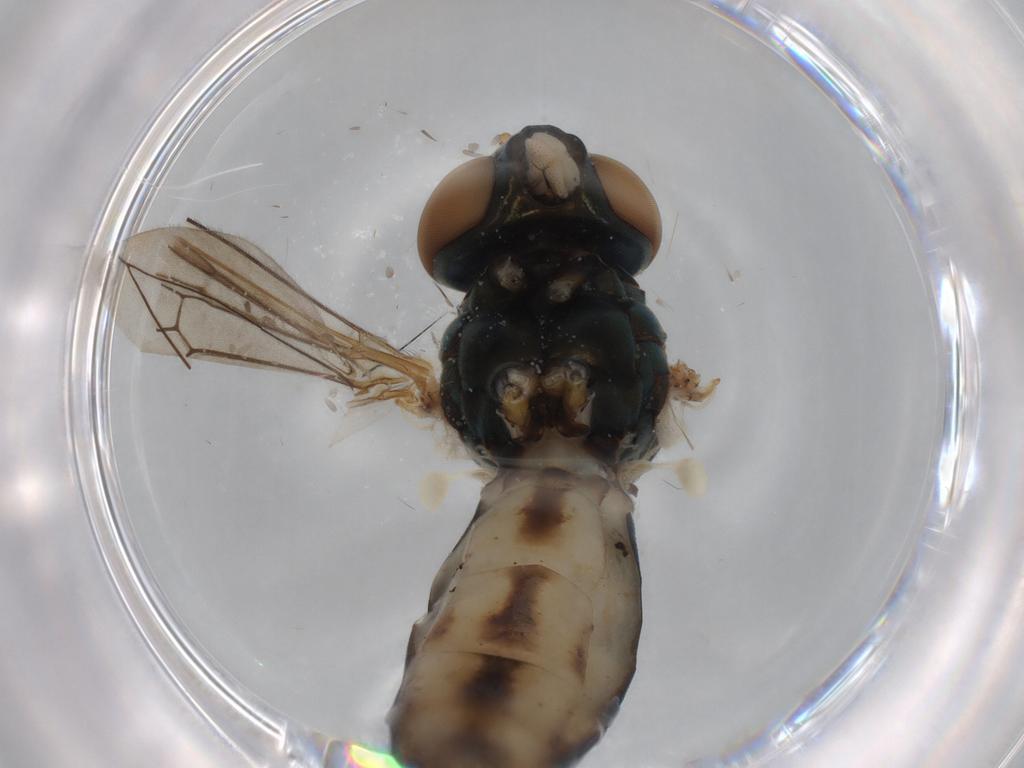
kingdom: Animalia
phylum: Arthropoda
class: Insecta
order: Diptera
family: Syrphidae
